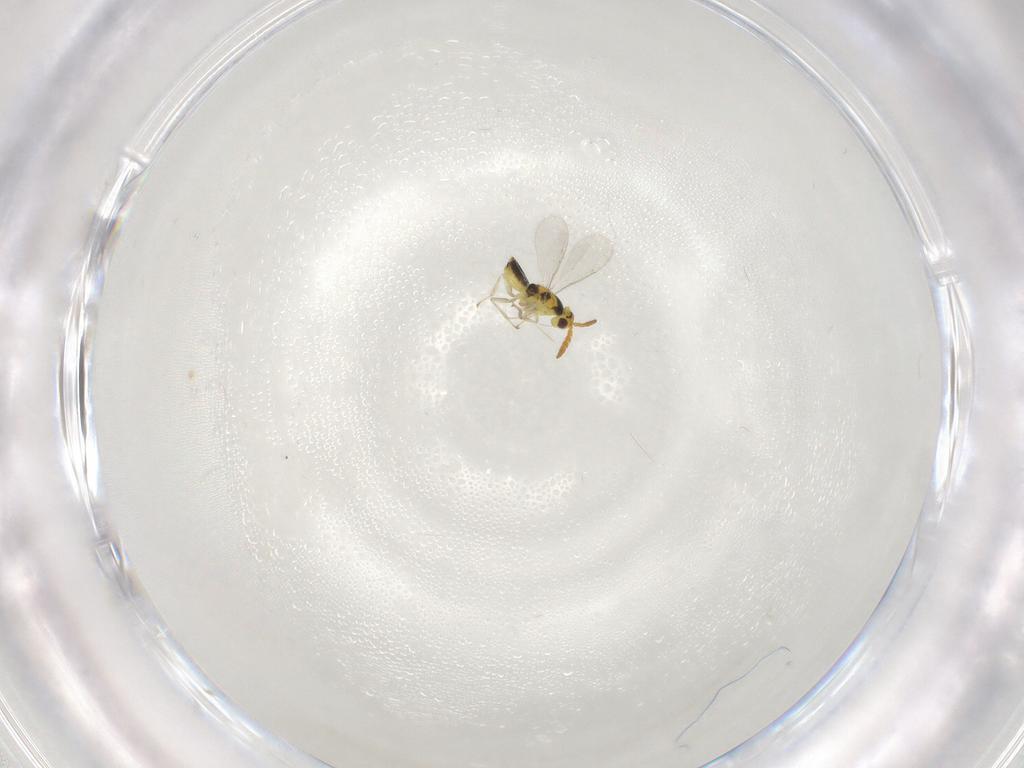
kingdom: Animalia
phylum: Arthropoda
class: Insecta
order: Hymenoptera
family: Aphelinidae
